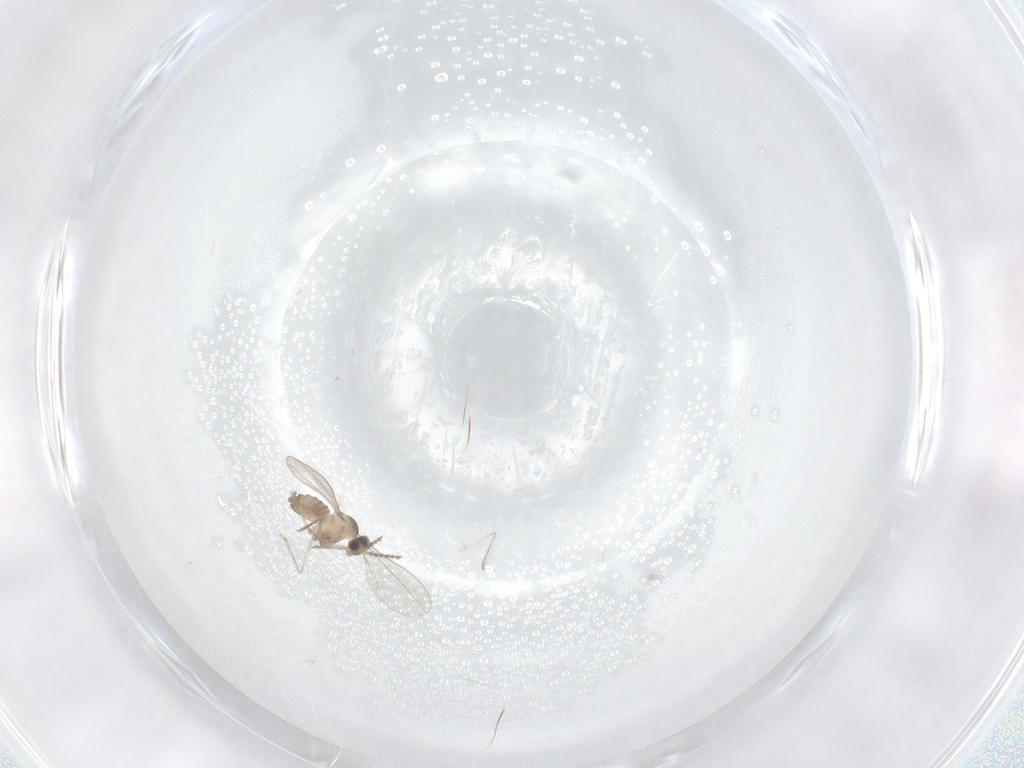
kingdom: Animalia
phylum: Arthropoda
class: Insecta
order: Diptera
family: Cecidomyiidae
